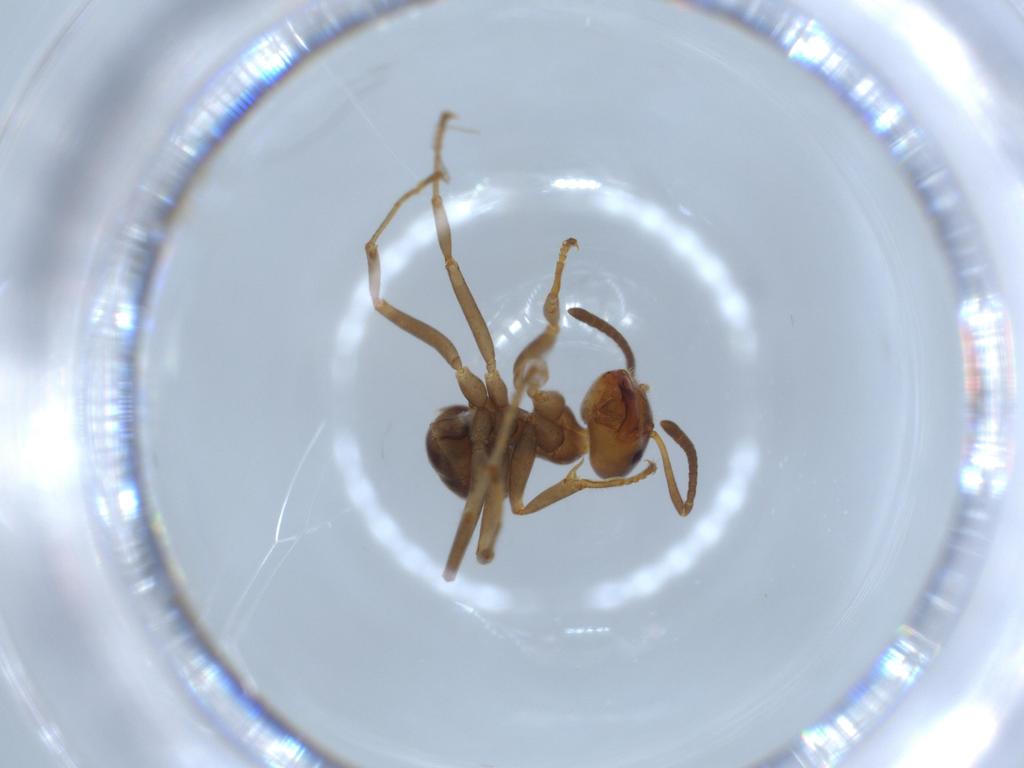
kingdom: Animalia
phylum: Arthropoda
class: Insecta
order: Hymenoptera
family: Formicidae
